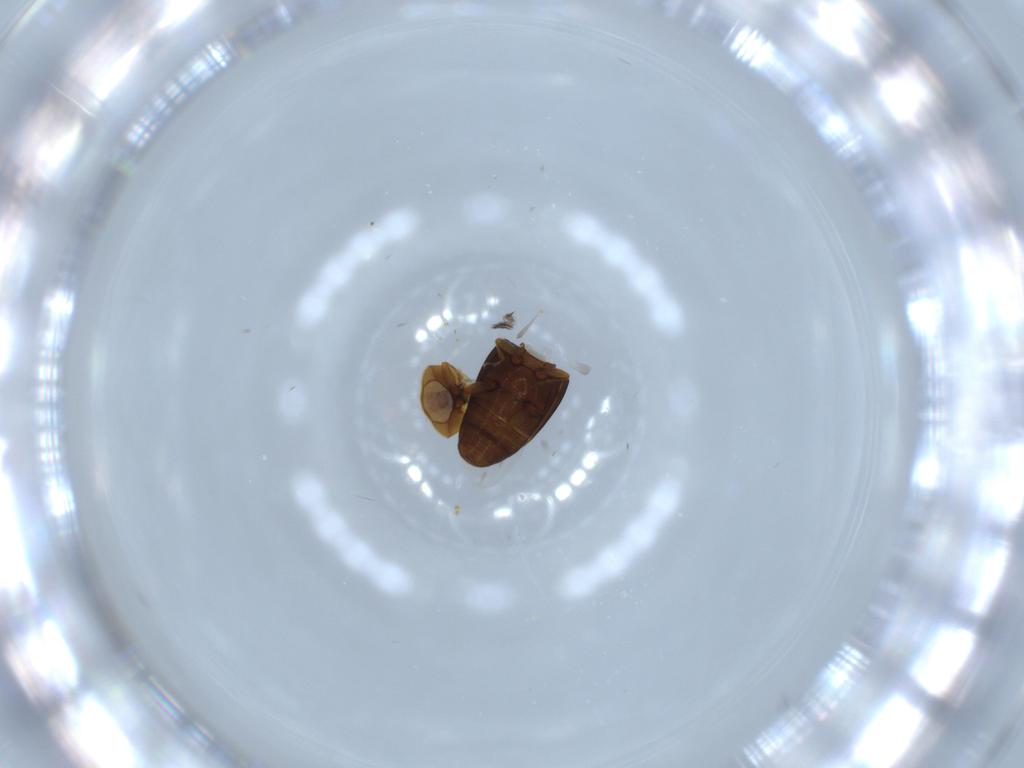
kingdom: Animalia
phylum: Arthropoda
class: Insecta
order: Coleoptera
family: Corylophidae
